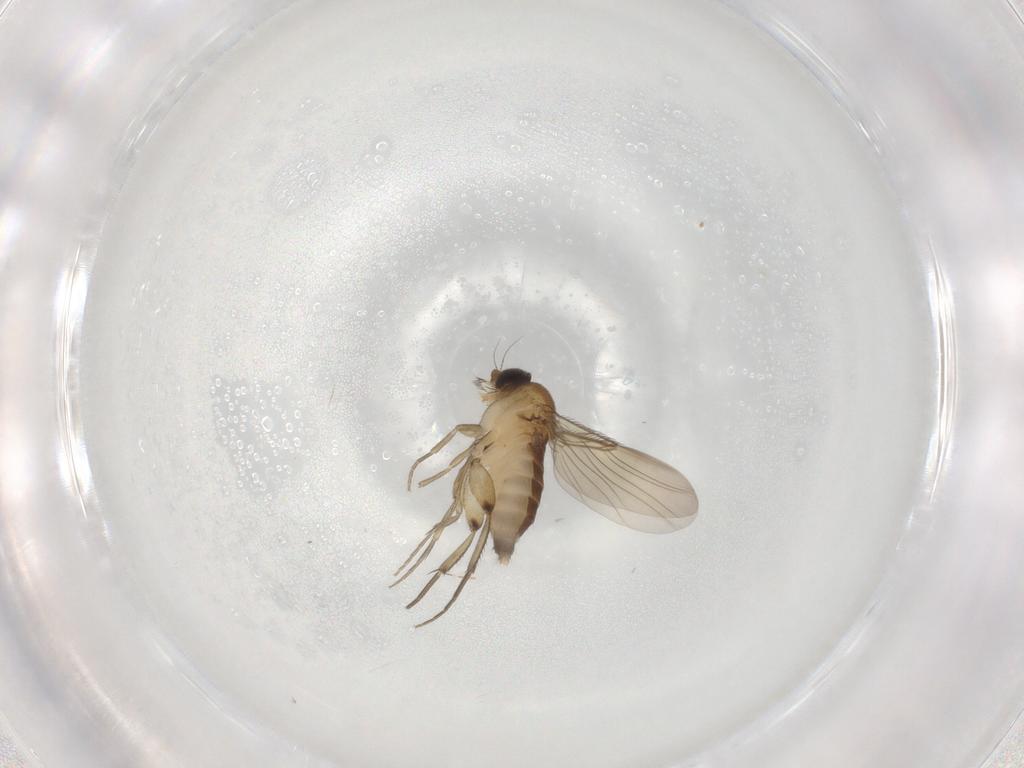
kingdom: Animalia
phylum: Arthropoda
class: Insecta
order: Diptera
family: Phoridae
